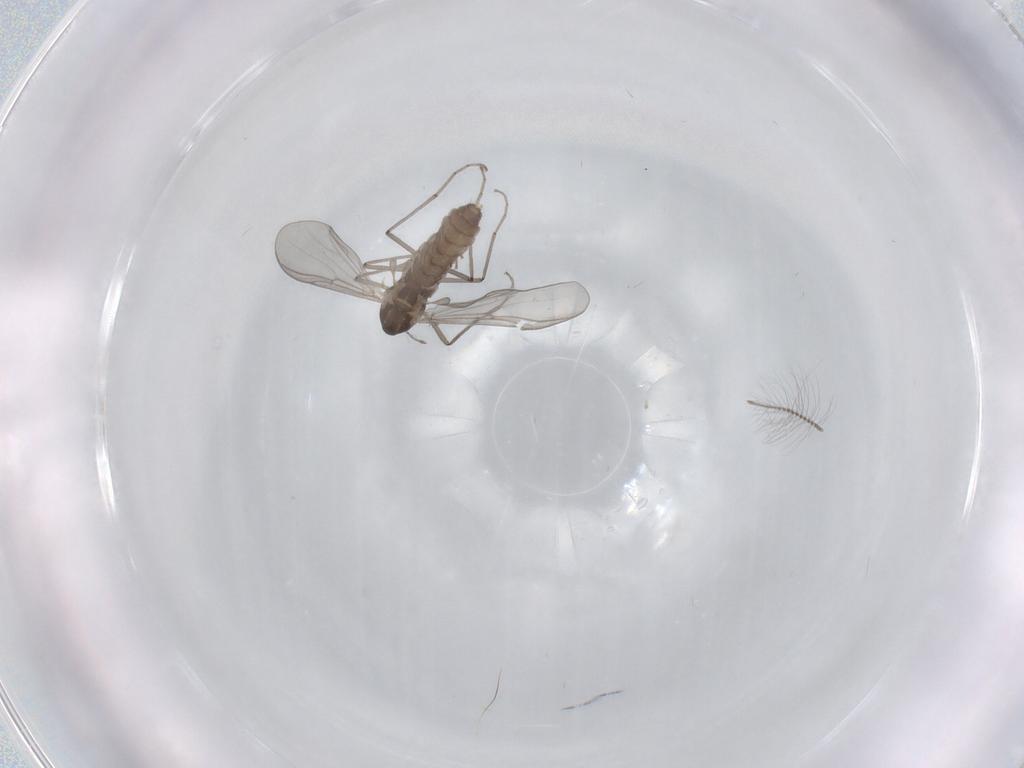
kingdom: Animalia
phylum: Arthropoda
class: Insecta
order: Diptera
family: Chironomidae
